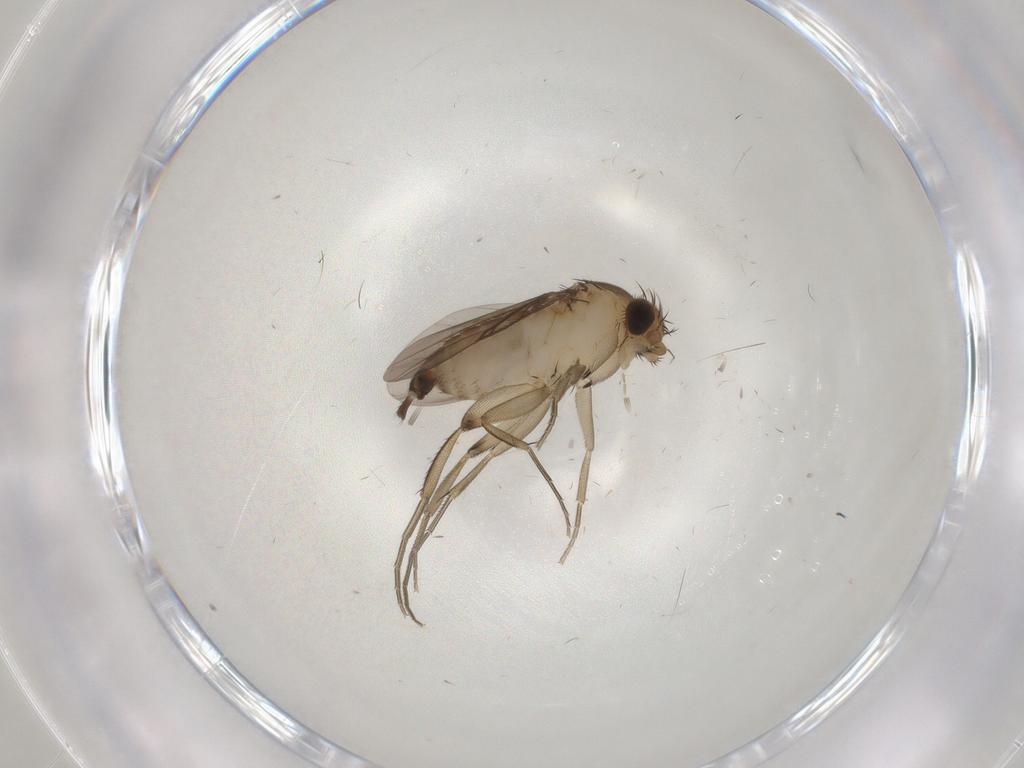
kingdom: Animalia
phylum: Arthropoda
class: Insecta
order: Diptera
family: Phoridae
